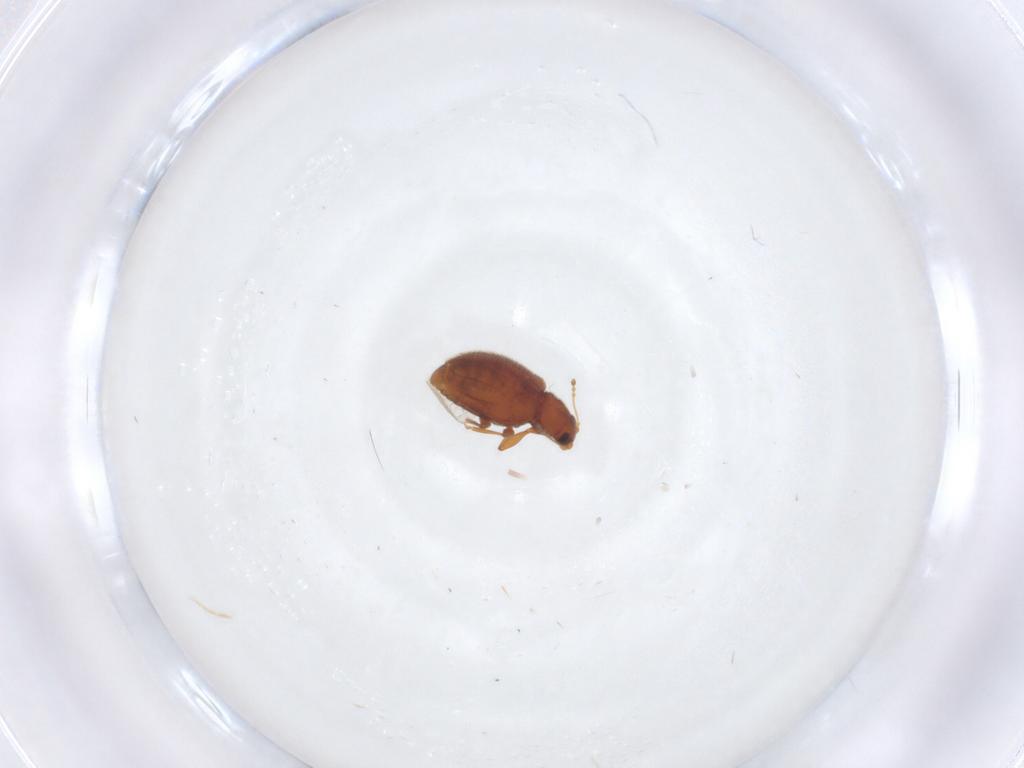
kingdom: Animalia
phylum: Arthropoda
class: Insecta
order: Coleoptera
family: Latridiidae
